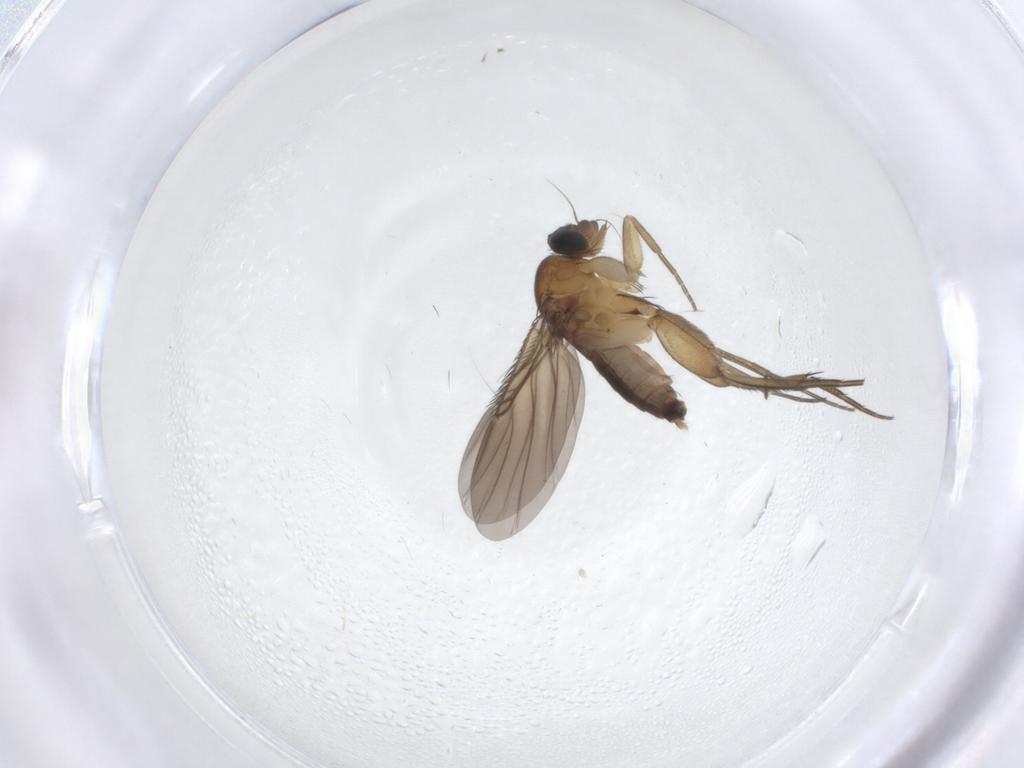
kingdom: Animalia
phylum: Arthropoda
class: Insecta
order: Diptera
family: Phoridae
